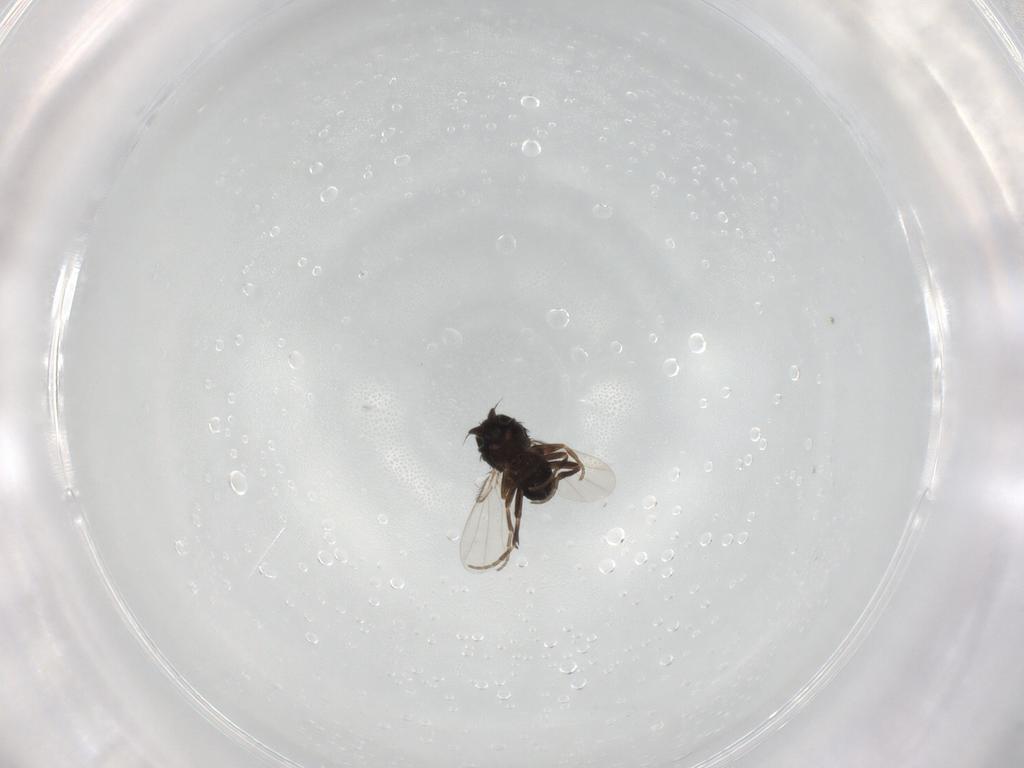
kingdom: Animalia
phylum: Arthropoda
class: Insecta
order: Diptera
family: Phoridae
